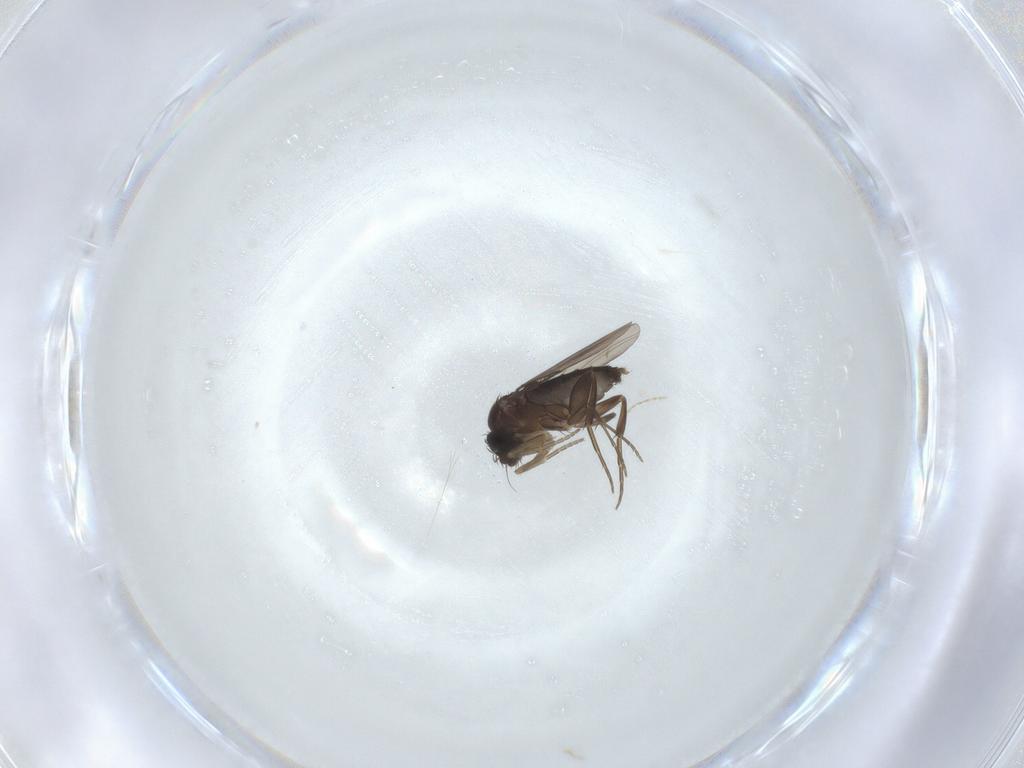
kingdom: Animalia
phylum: Arthropoda
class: Insecta
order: Diptera
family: Phoridae
